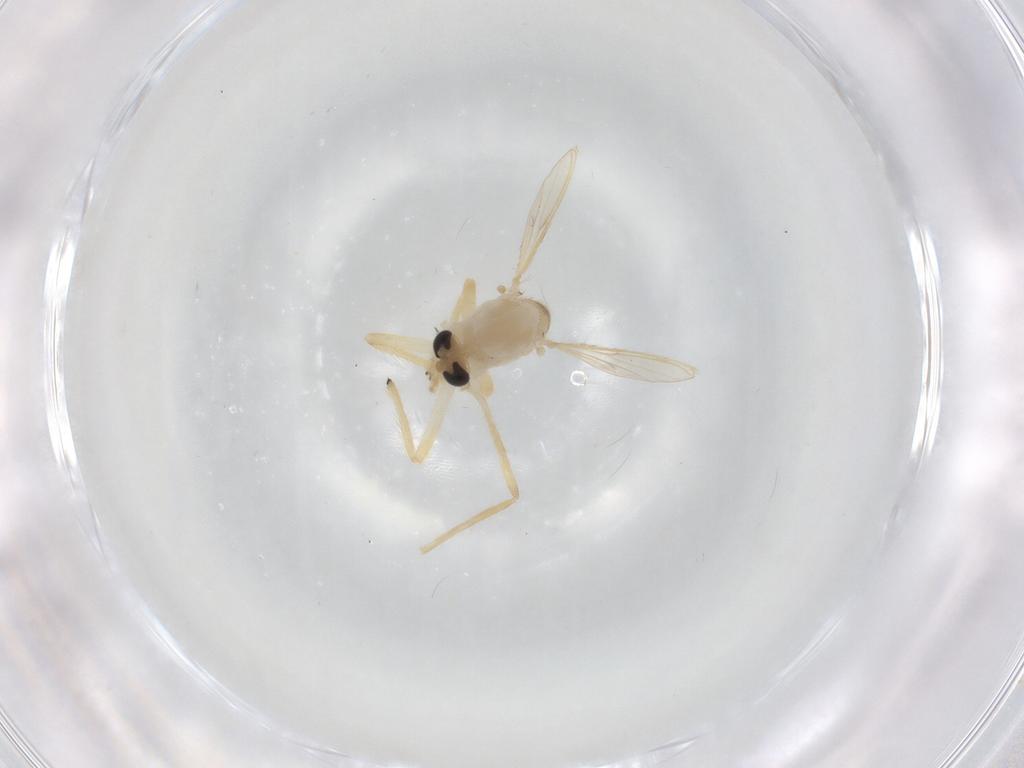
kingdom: Animalia
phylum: Arthropoda
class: Insecta
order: Diptera
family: Chironomidae
